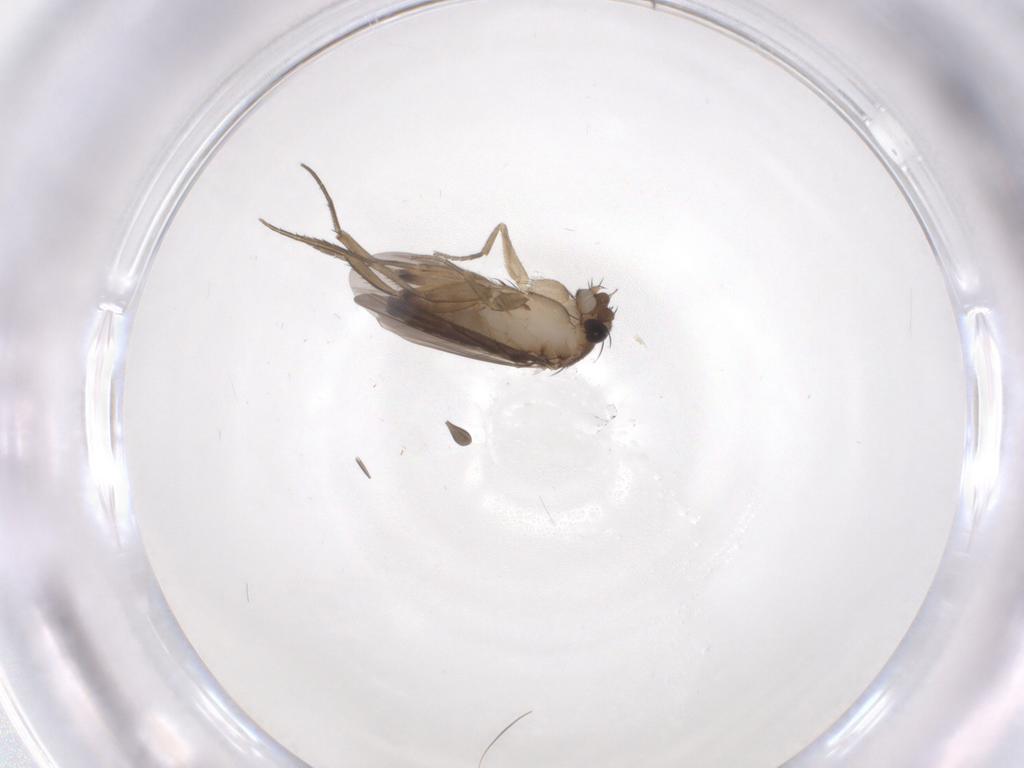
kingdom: Animalia
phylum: Arthropoda
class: Insecta
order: Diptera
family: Phoridae
